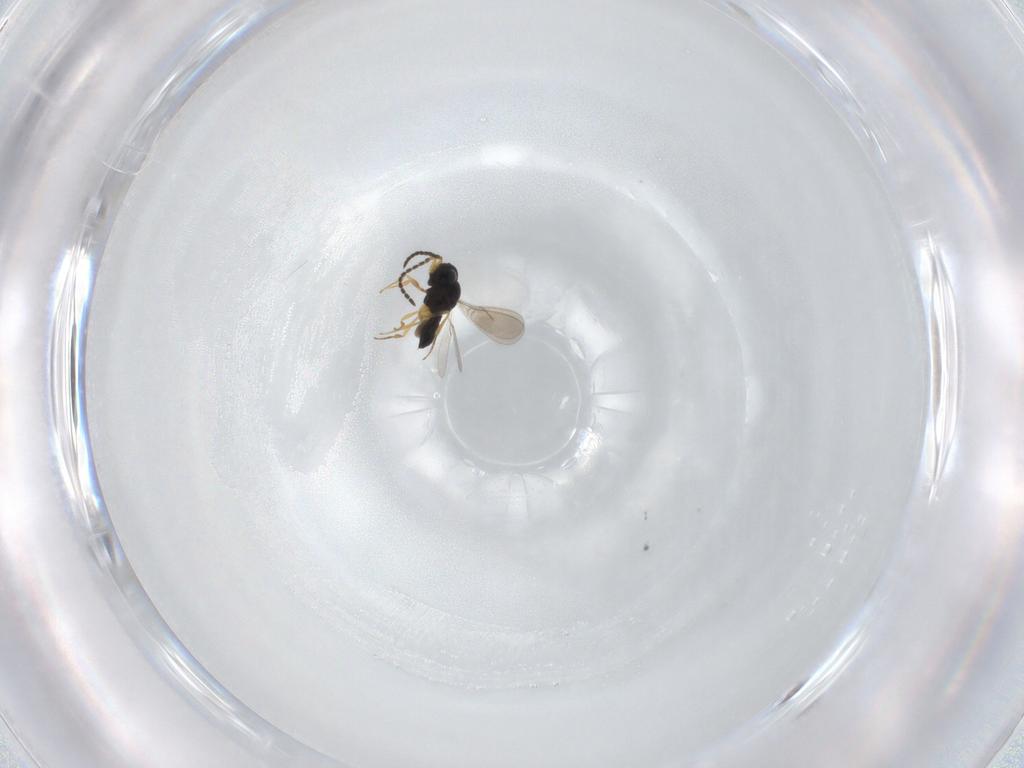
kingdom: Animalia
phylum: Arthropoda
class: Insecta
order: Hymenoptera
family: Scelionidae
